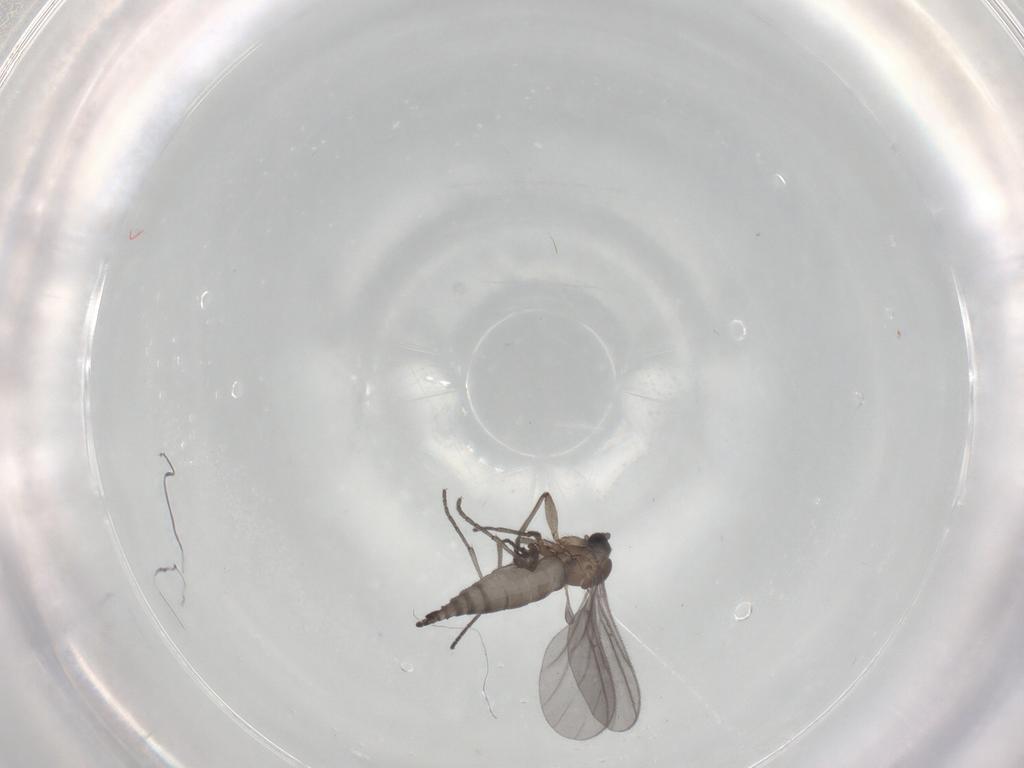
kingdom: Animalia
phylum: Arthropoda
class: Insecta
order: Diptera
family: Sciaridae
